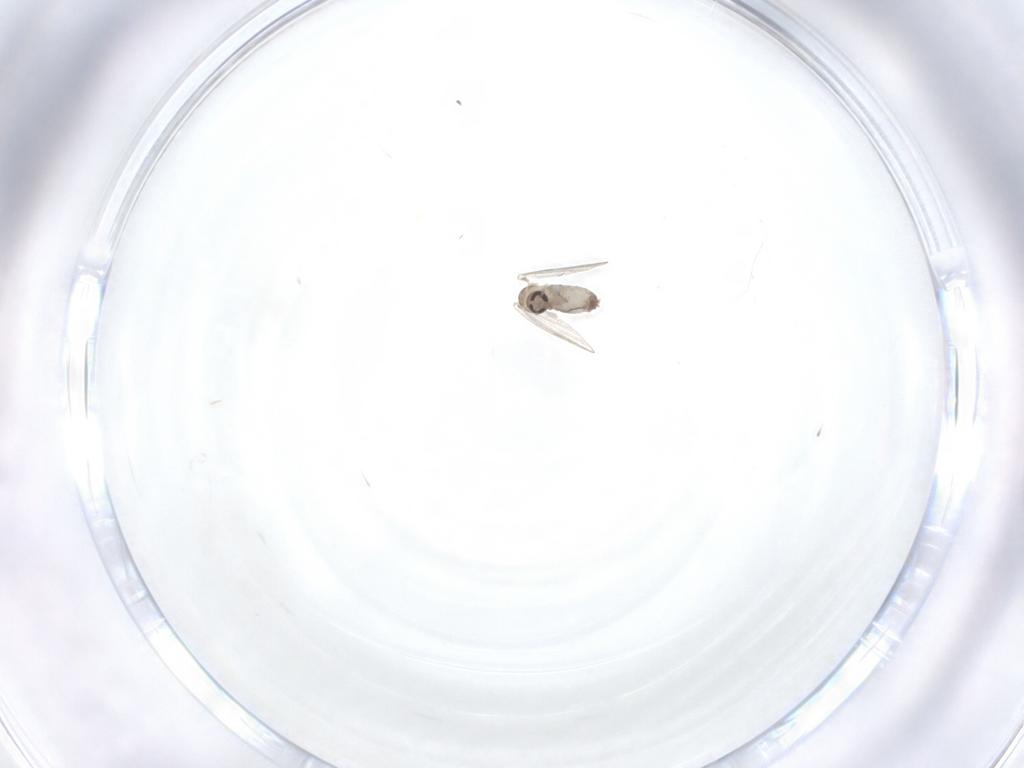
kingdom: Animalia
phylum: Arthropoda
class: Insecta
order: Diptera
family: Psychodidae
